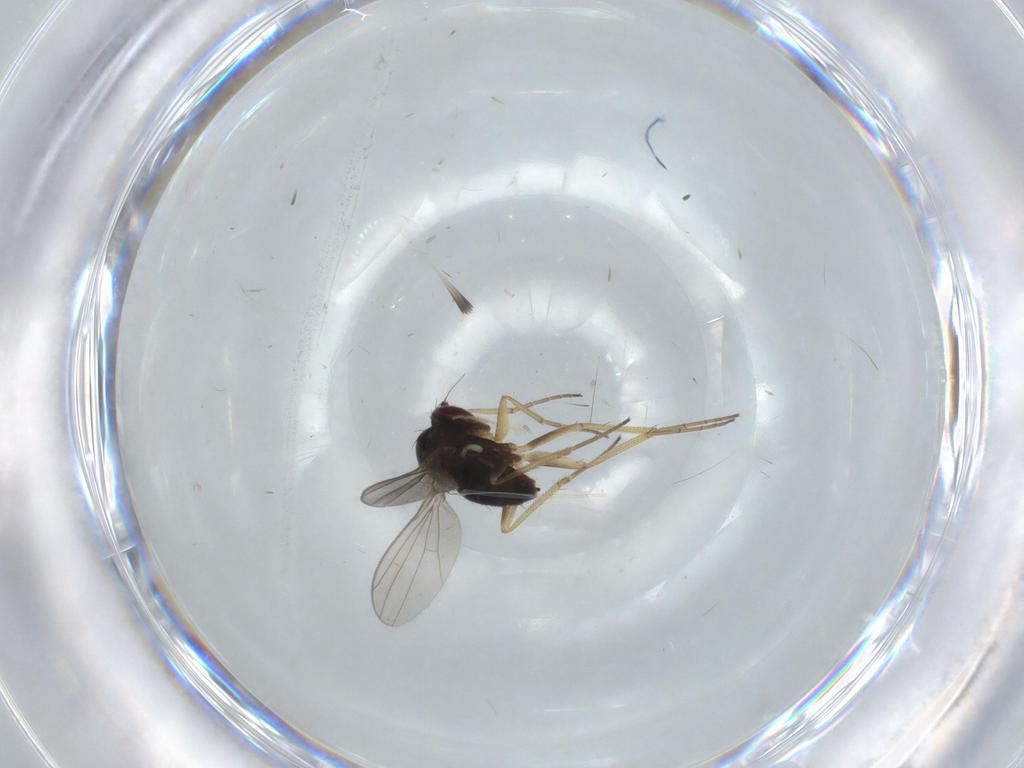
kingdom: Animalia
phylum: Arthropoda
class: Insecta
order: Diptera
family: Dolichopodidae
